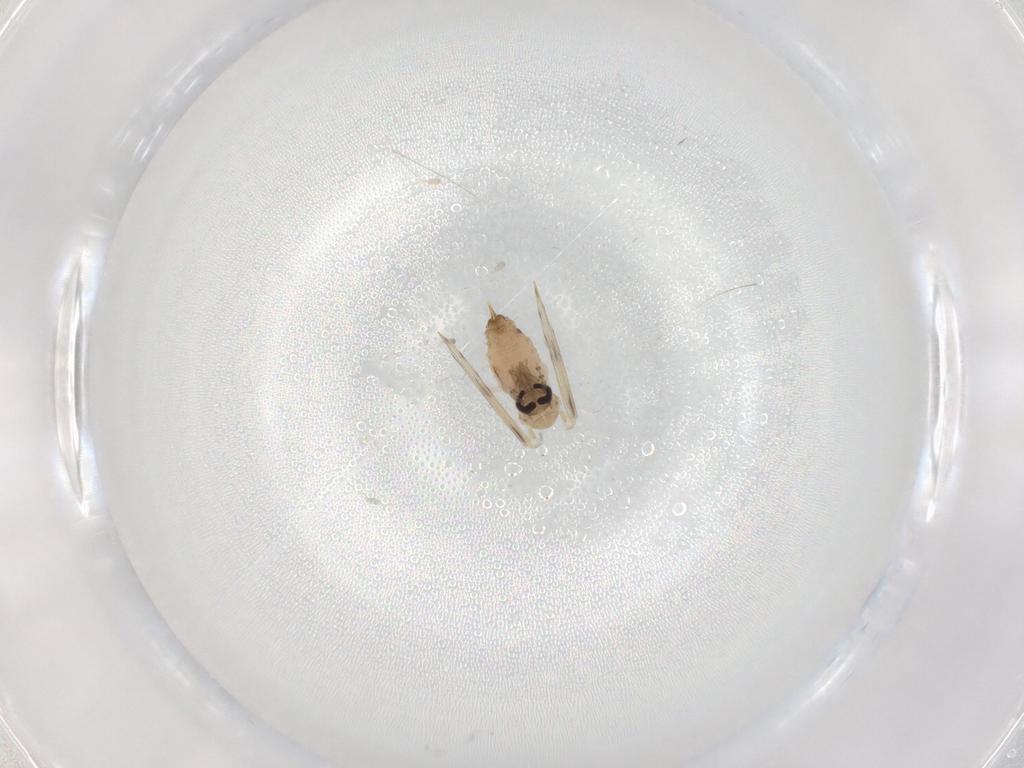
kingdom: Animalia
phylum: Arthropoda
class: Insecta
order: Diptera
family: Psychodidae
